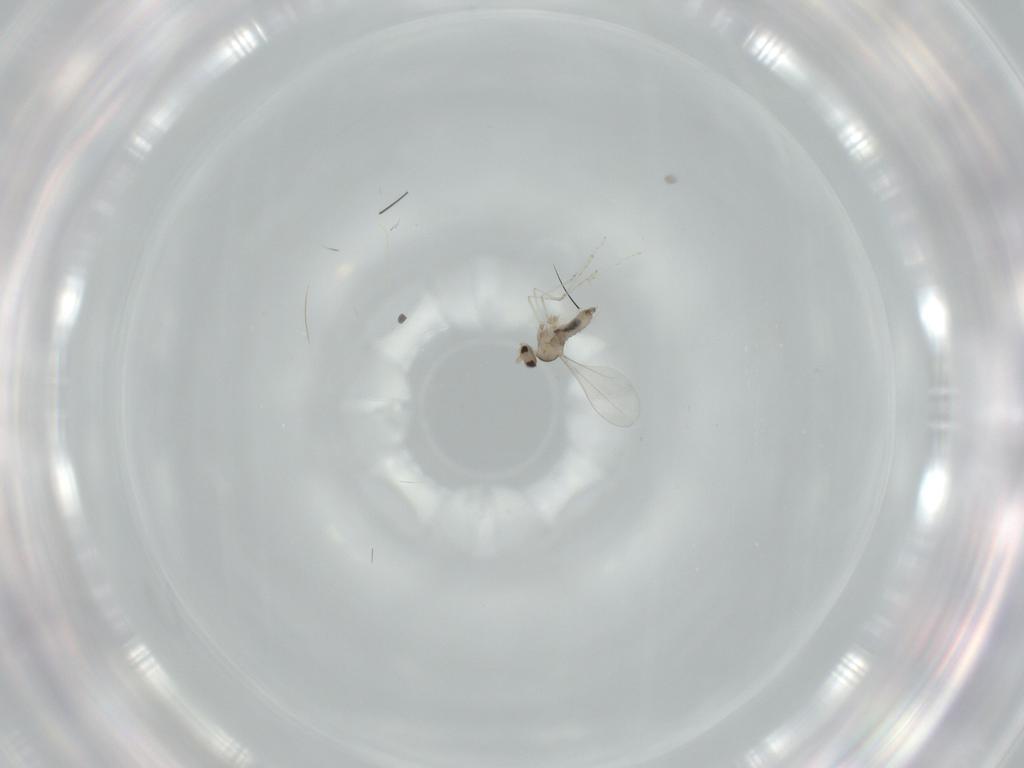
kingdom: Animalia
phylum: Arthropoda
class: Insecta
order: Diptera
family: Cecidomyiidae
